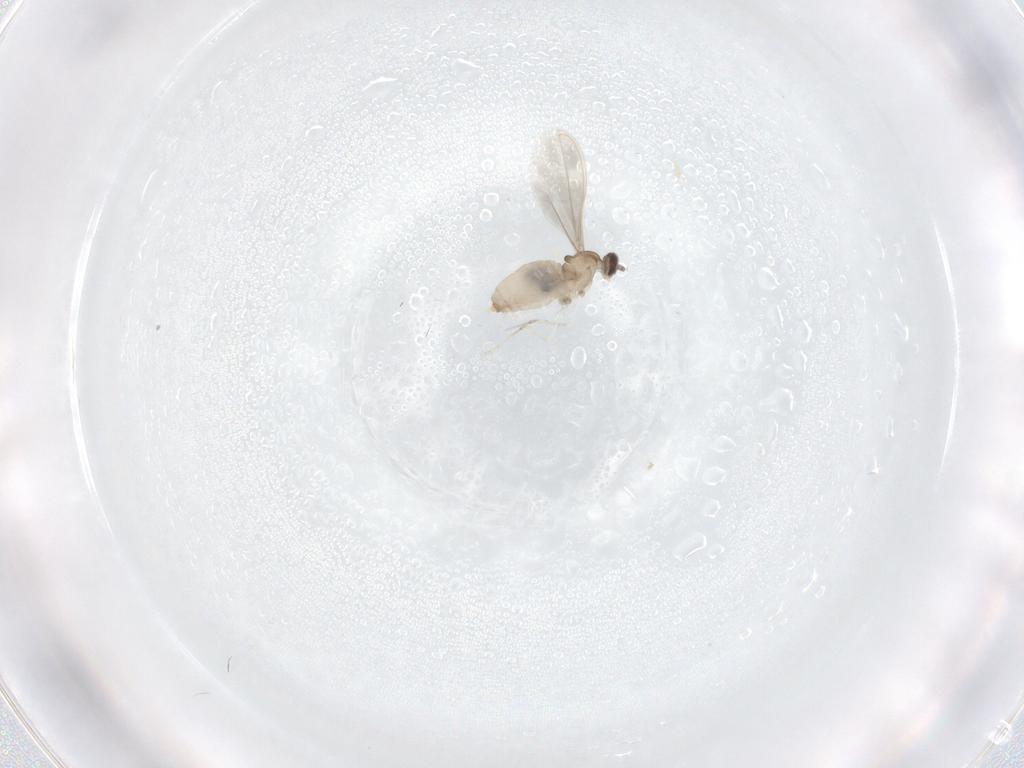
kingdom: Animalia
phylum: Arthropoda
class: Insecta
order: Diptera
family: Cecidomyiidae
